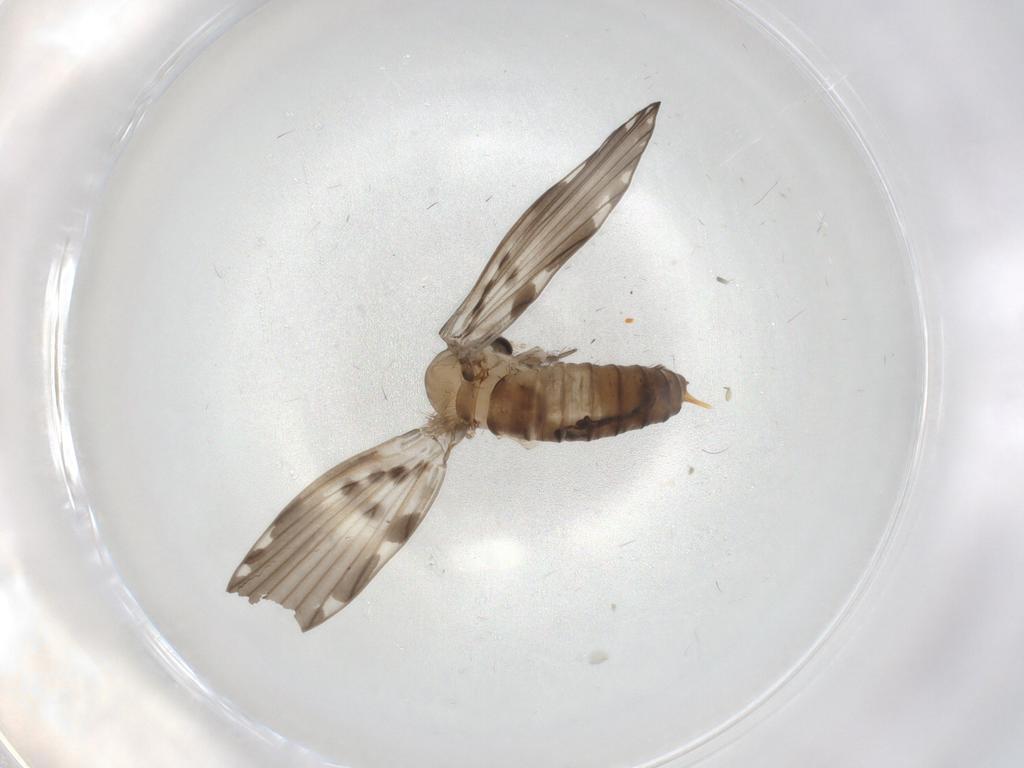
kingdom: Animalia
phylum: Arthropoda
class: Insecta
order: Diptera
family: Psychodidae
